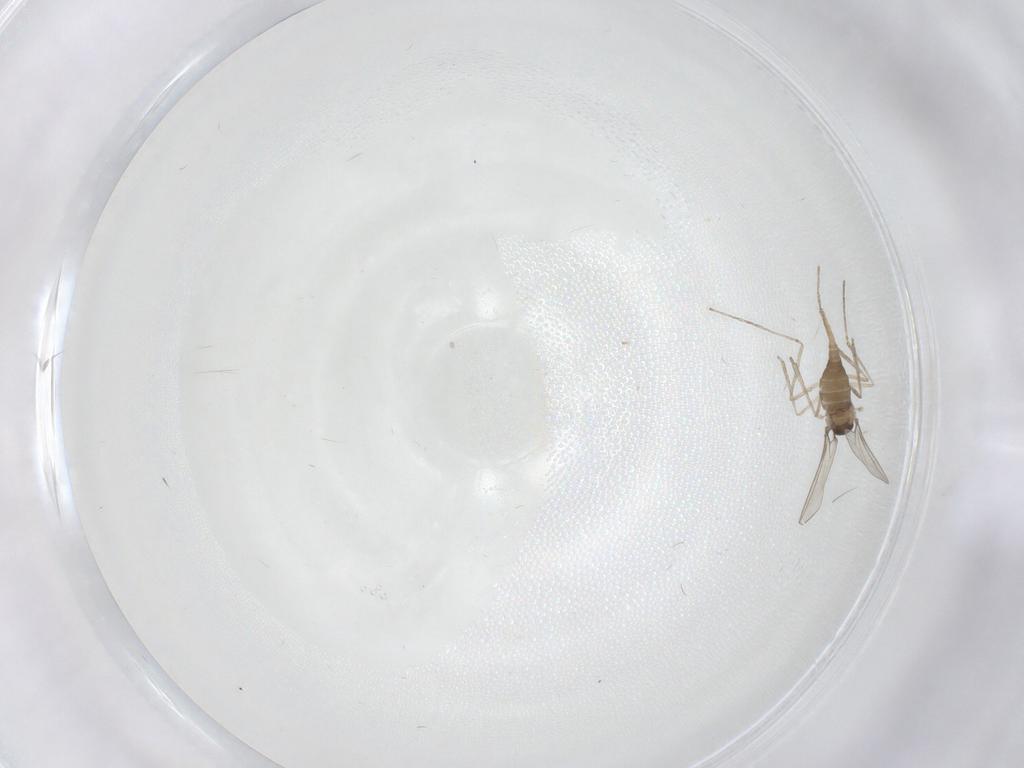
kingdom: Animalia
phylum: Arthropoda
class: Insecta
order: Diptera
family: Cecidomyiidae
